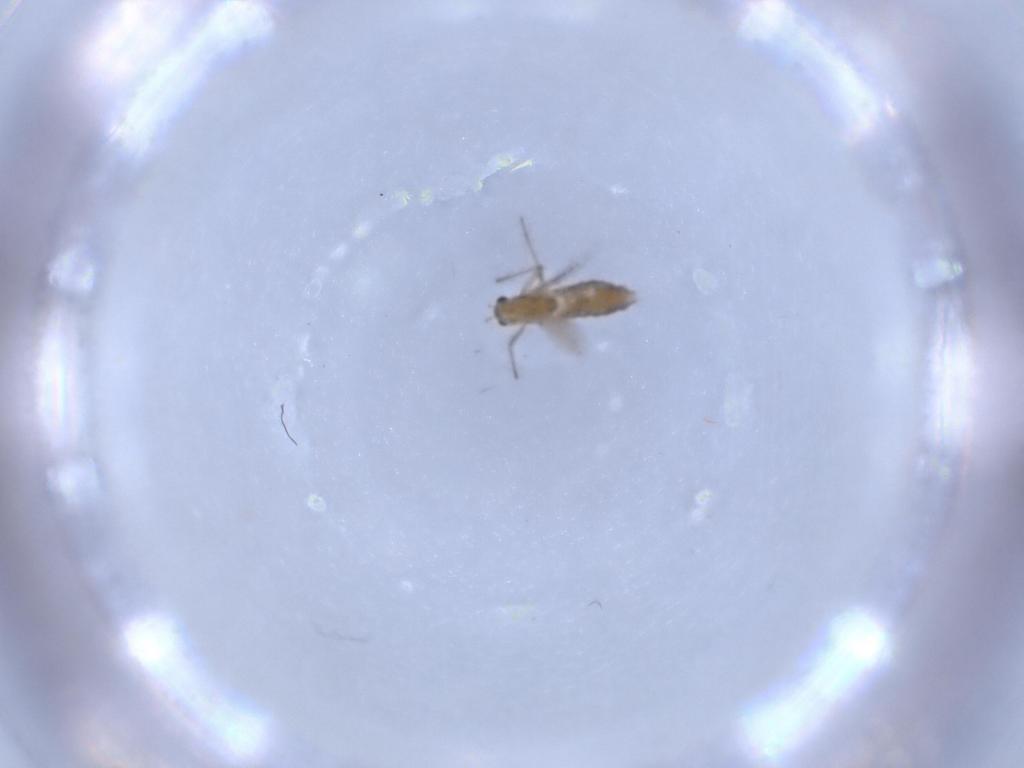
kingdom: Animalia
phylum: Arthropoda
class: Insecta
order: Diptera
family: Chironomidae
